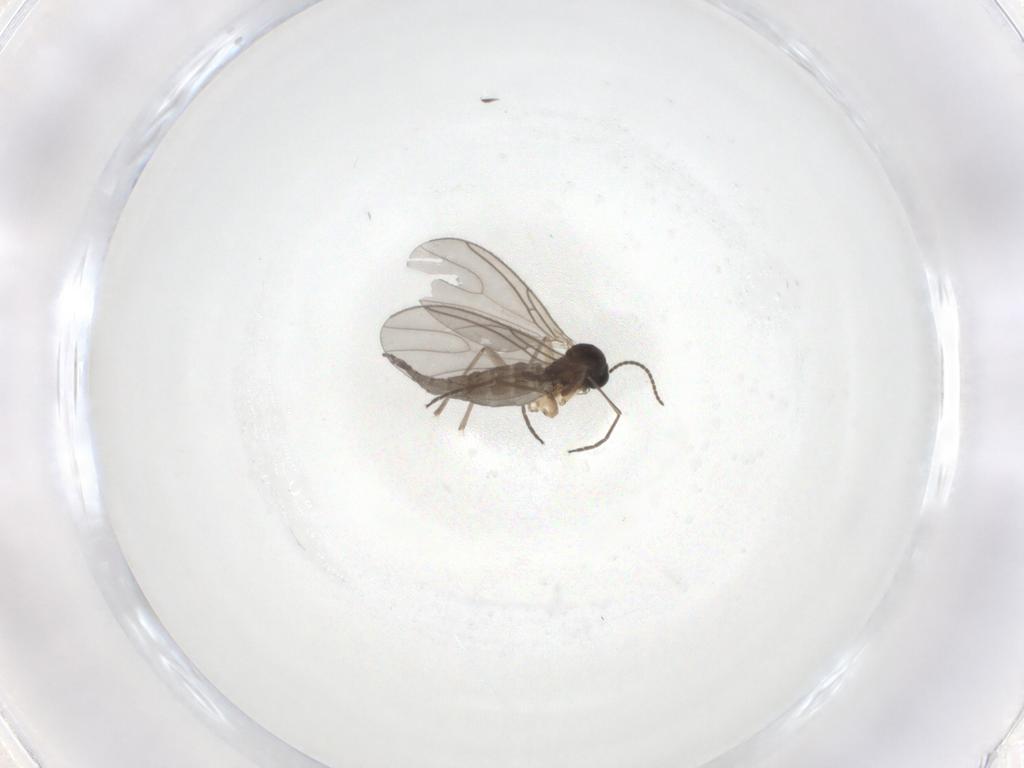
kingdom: Animalia
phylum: Arthropoda
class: Insecta
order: Diptera
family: Sciaridae
